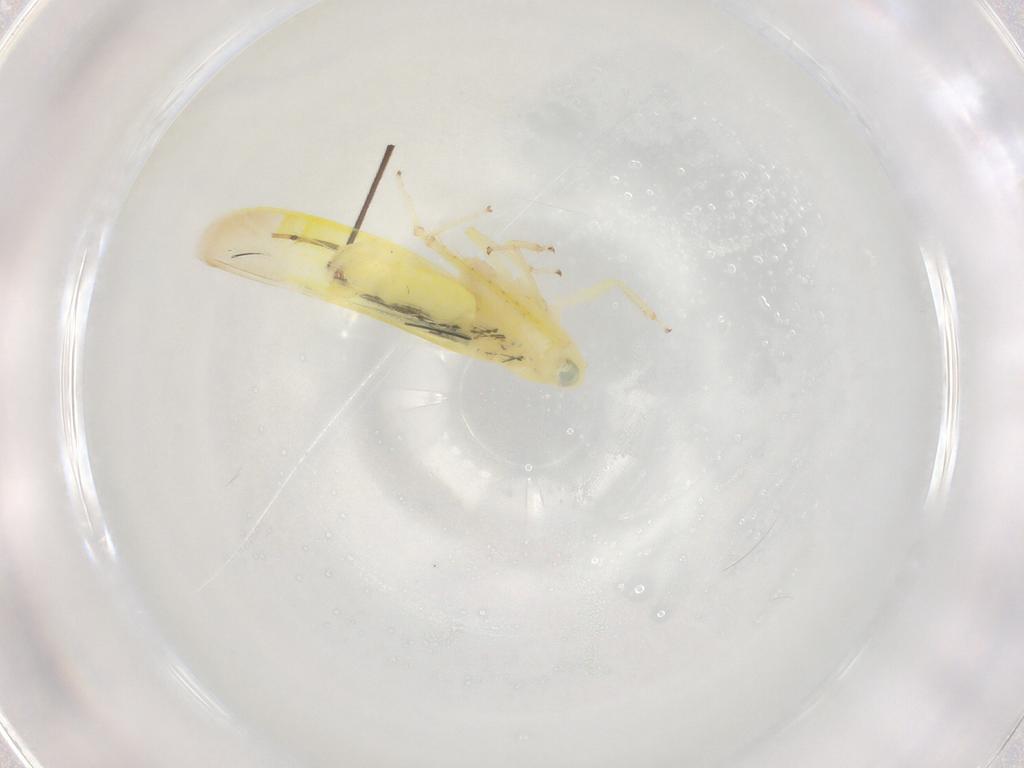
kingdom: Animalia
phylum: Arthropoda
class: Insecta
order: Hemiptera
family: Cicadellidae
